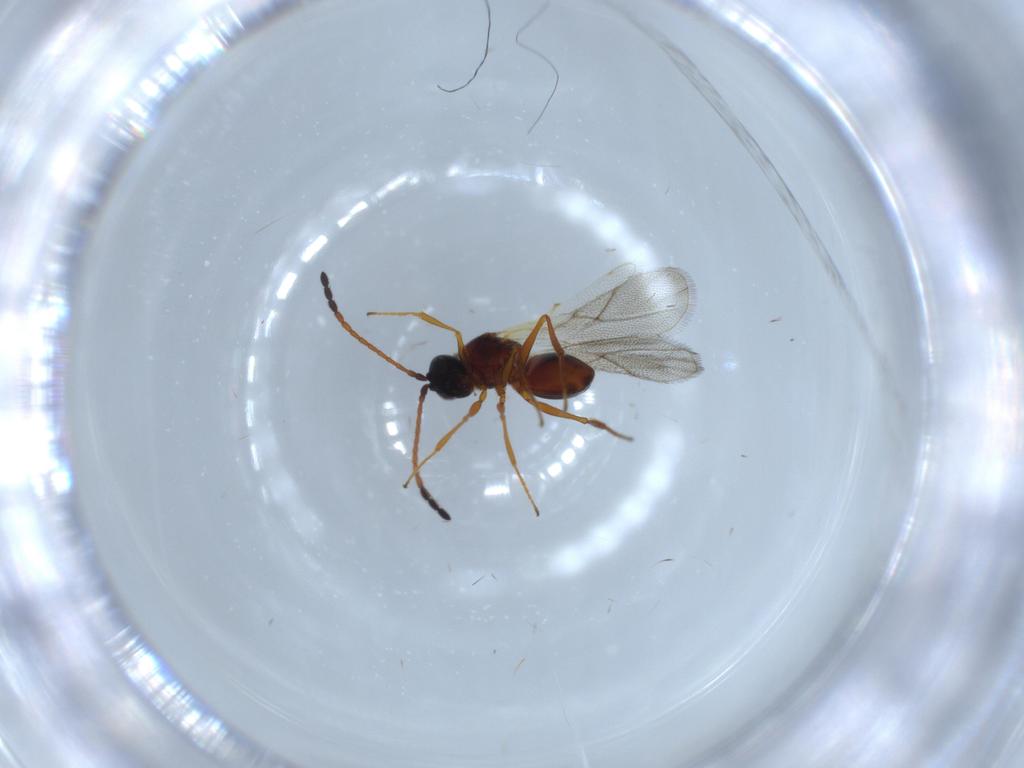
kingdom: Animalia
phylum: Arthropoda
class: Insecta
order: Hymenoptera
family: Figitidae
